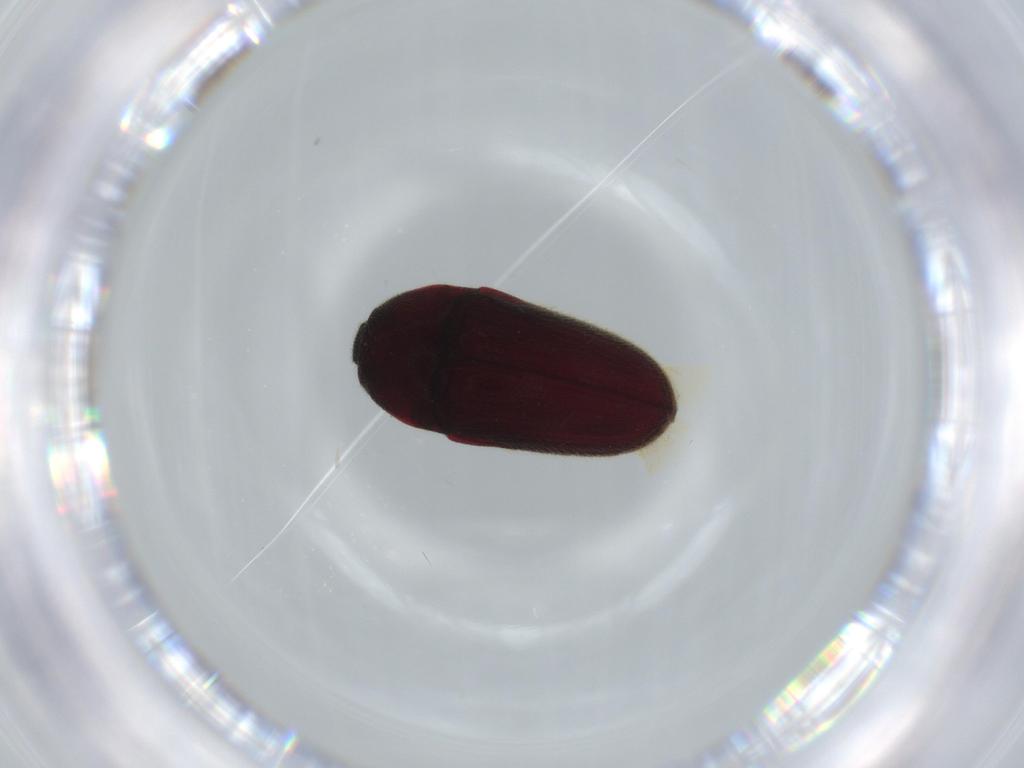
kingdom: Animalia
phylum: Arthropoda
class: Insecta
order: Coleoptera
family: Throscidae
